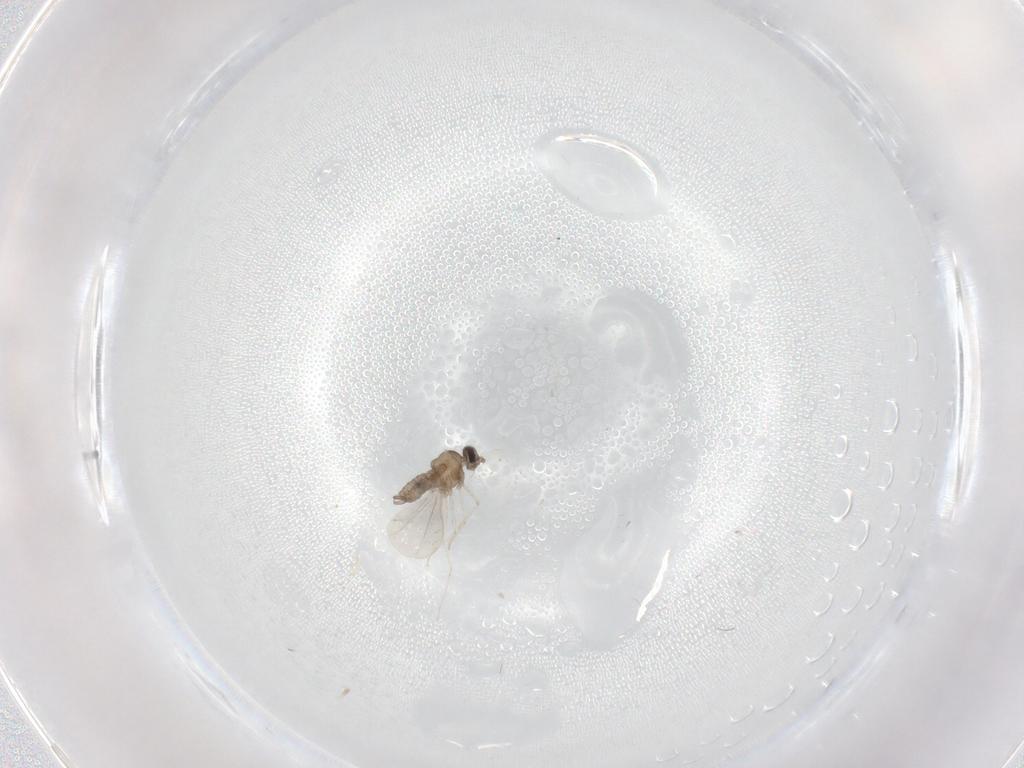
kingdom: Animalia
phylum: Arthropoda
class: Insecta
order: Diptera
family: Cecidomyiidae
